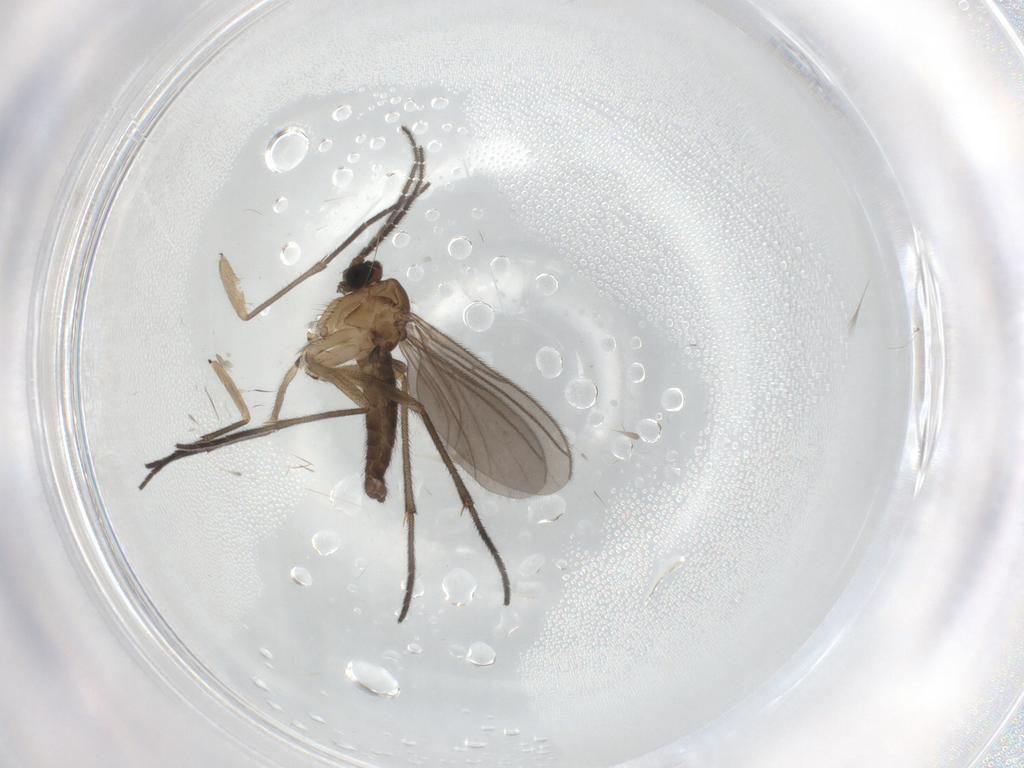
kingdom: Animalia
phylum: Arthropoda
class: Insecta
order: Diptera
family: Sciaridae
